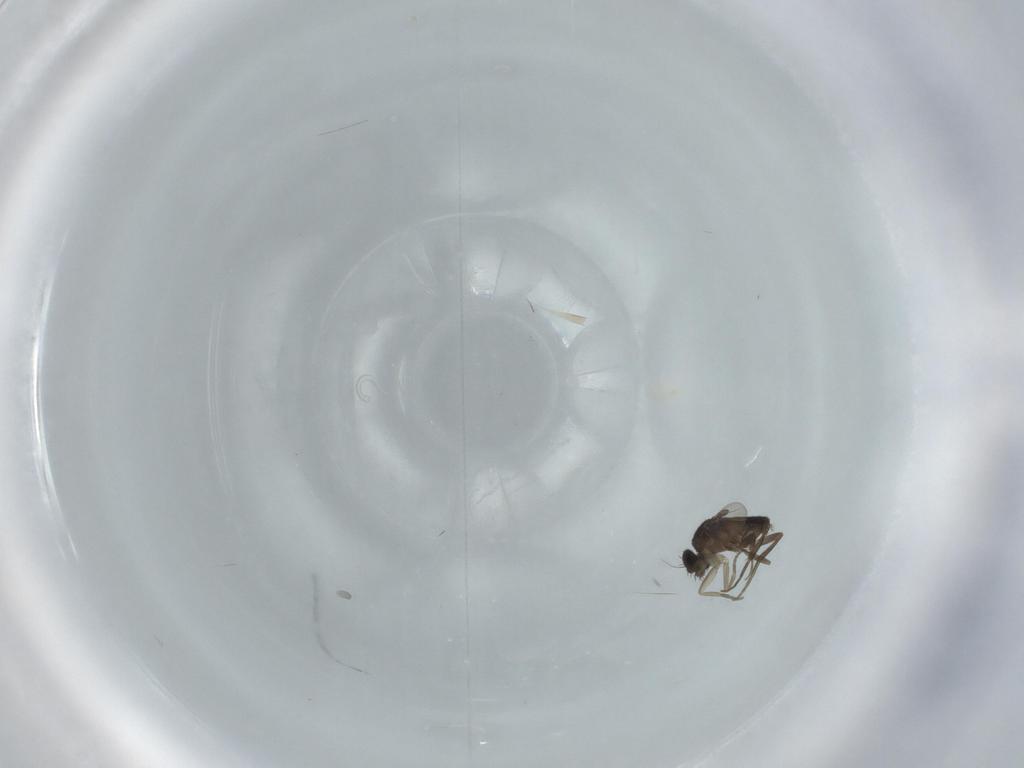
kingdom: Animalia
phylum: Arthropoda
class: Insecta
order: Diptera
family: Phoridae
